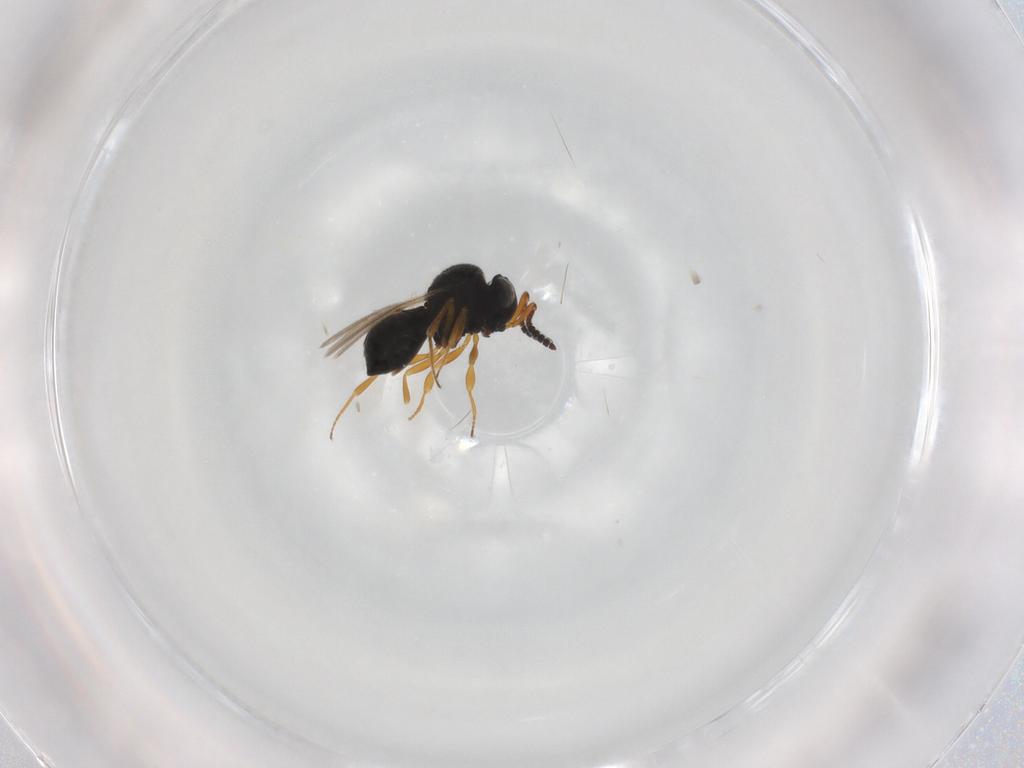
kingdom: Animalia
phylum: Arthropoda
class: Insecta
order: Hymenoptera
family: Scelionidae
